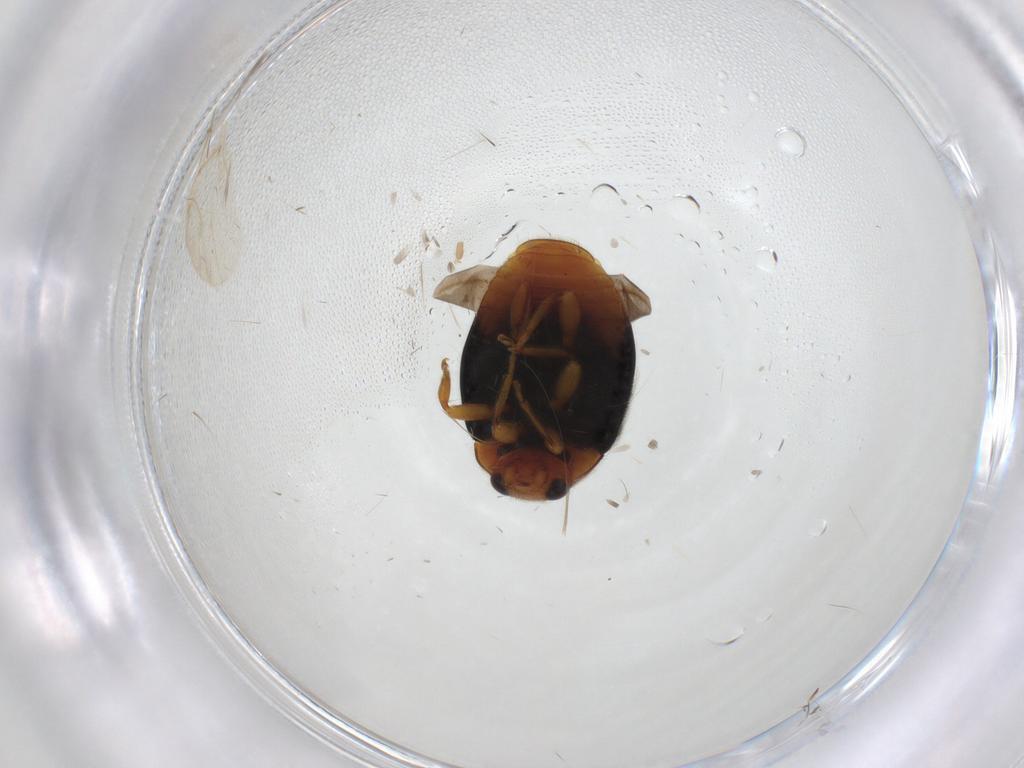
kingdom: Animalia
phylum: Arthropoda
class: Insecta
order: Coleoptera
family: Coccinellidae
